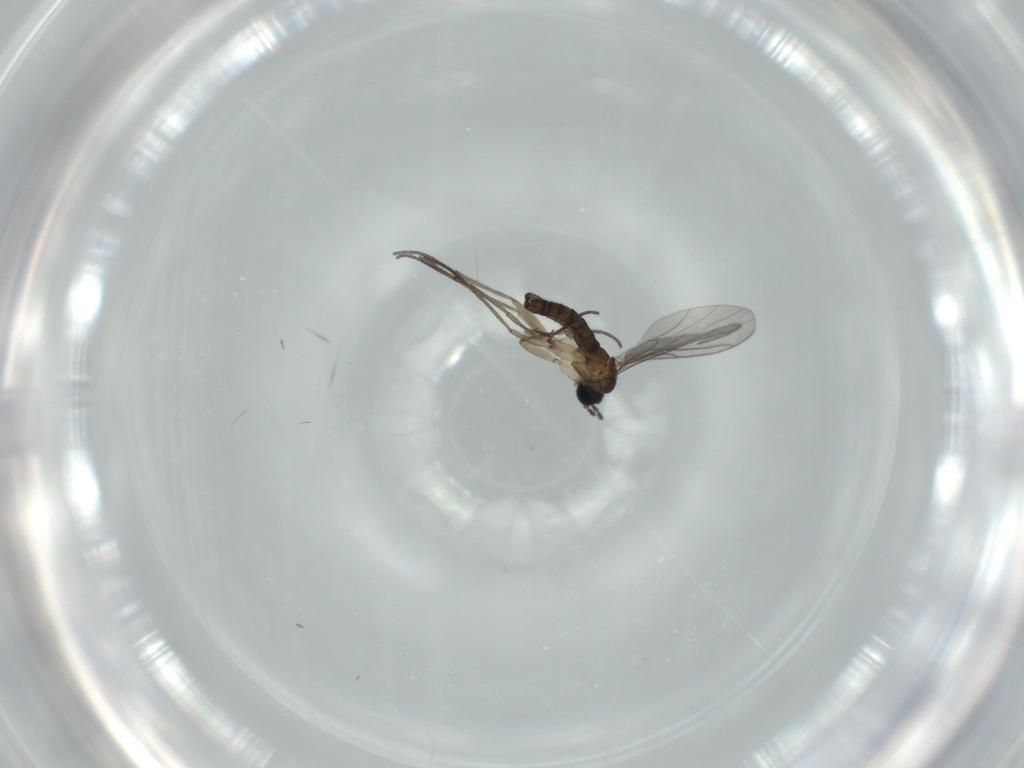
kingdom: Animalia
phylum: Arthropoda
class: Insecta
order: Diptera
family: Sciaridae
